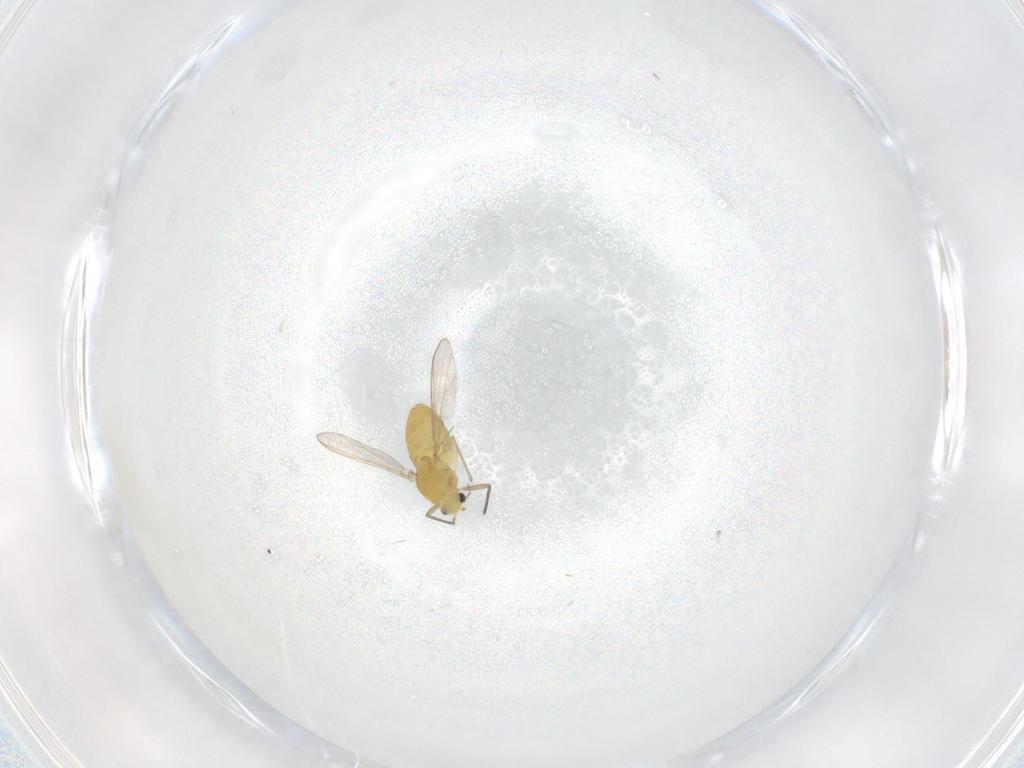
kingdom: Animalia
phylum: Arthropoda
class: Insecta
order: Diptera
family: Chironomidae
